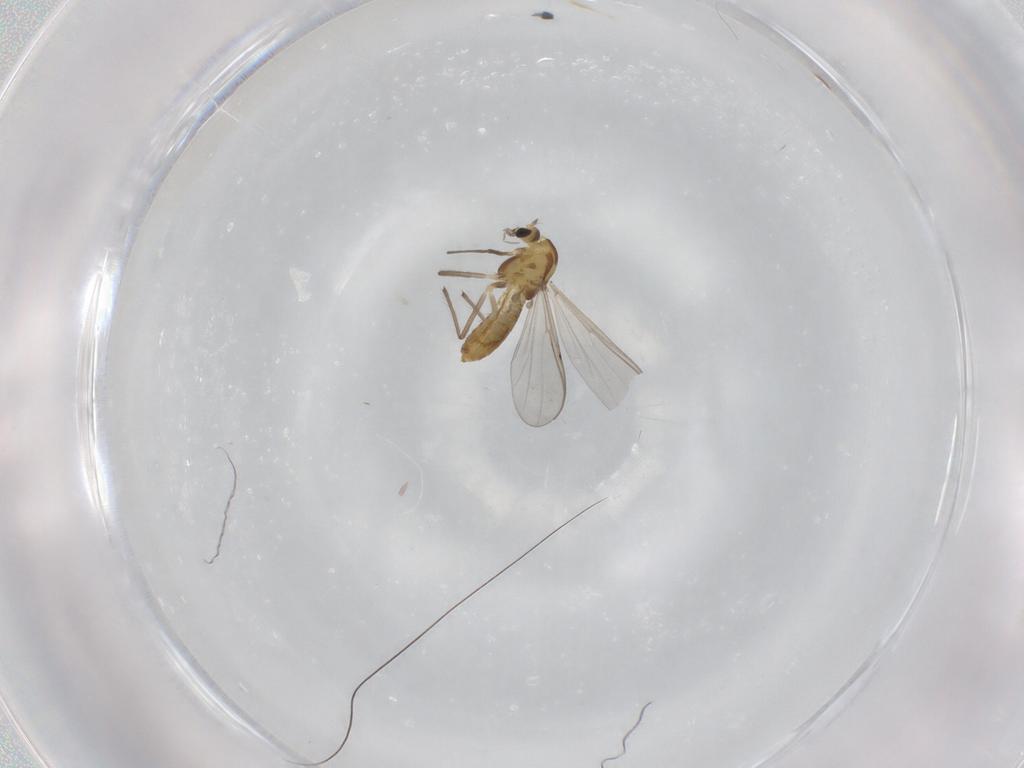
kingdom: Animalia
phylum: Arthropoda
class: Insecta
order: Diptera
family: Chironomidae
